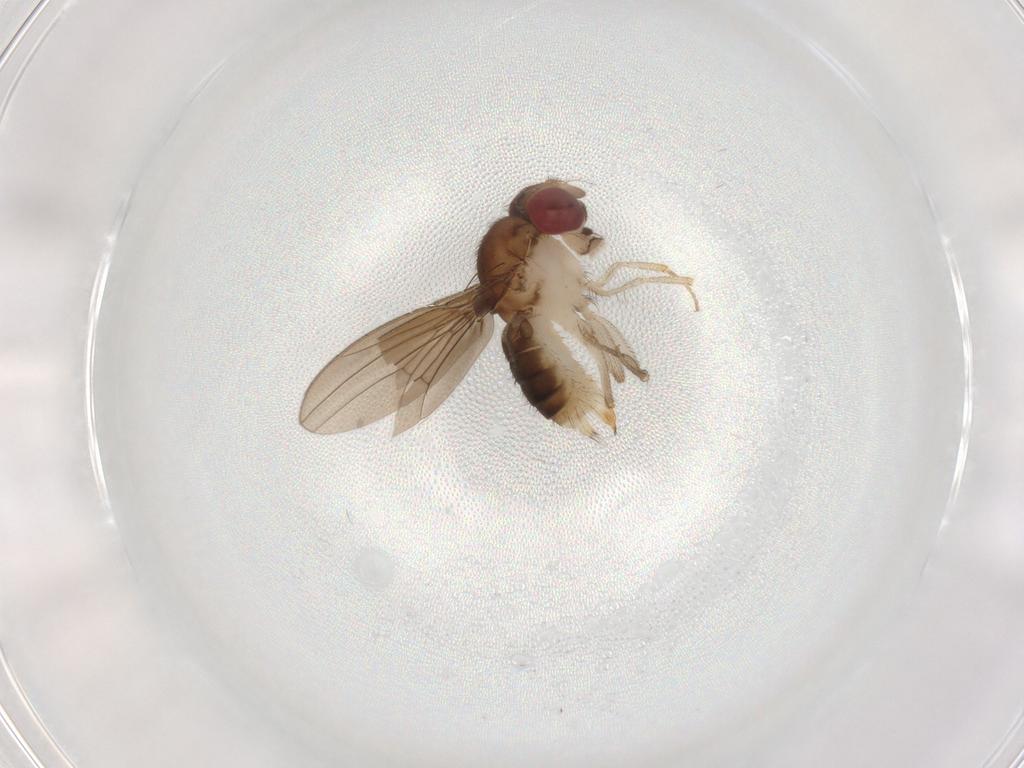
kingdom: Animalia
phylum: Arthropoda
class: Insecta
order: Diptera
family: Drosophilidae
